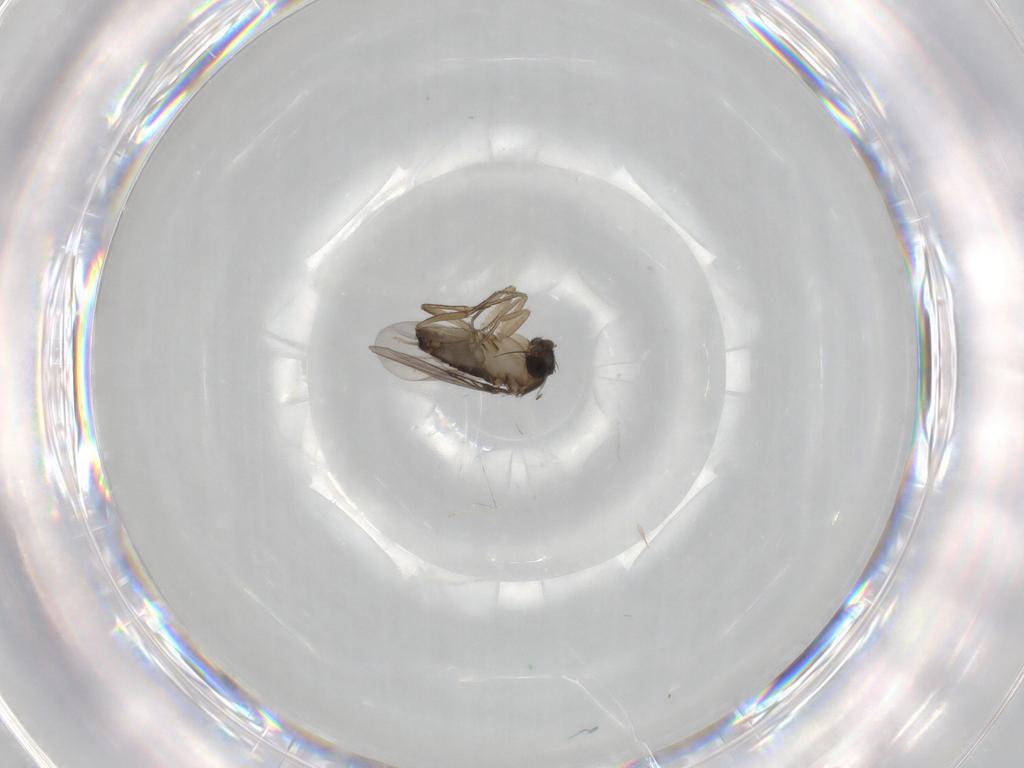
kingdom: Animalia
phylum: Arthropoda
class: Insecta
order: Diptera
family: Phoridae
